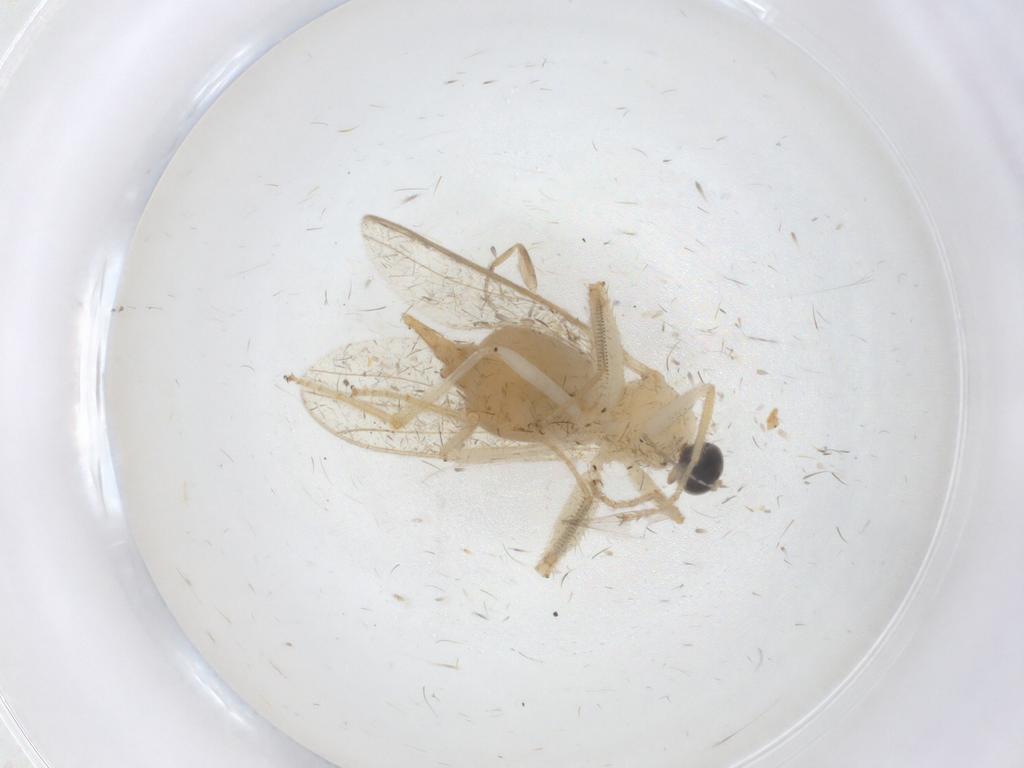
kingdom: Animalia
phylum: Arthropoda
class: Insecta
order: Diptera
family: Hybotidae
